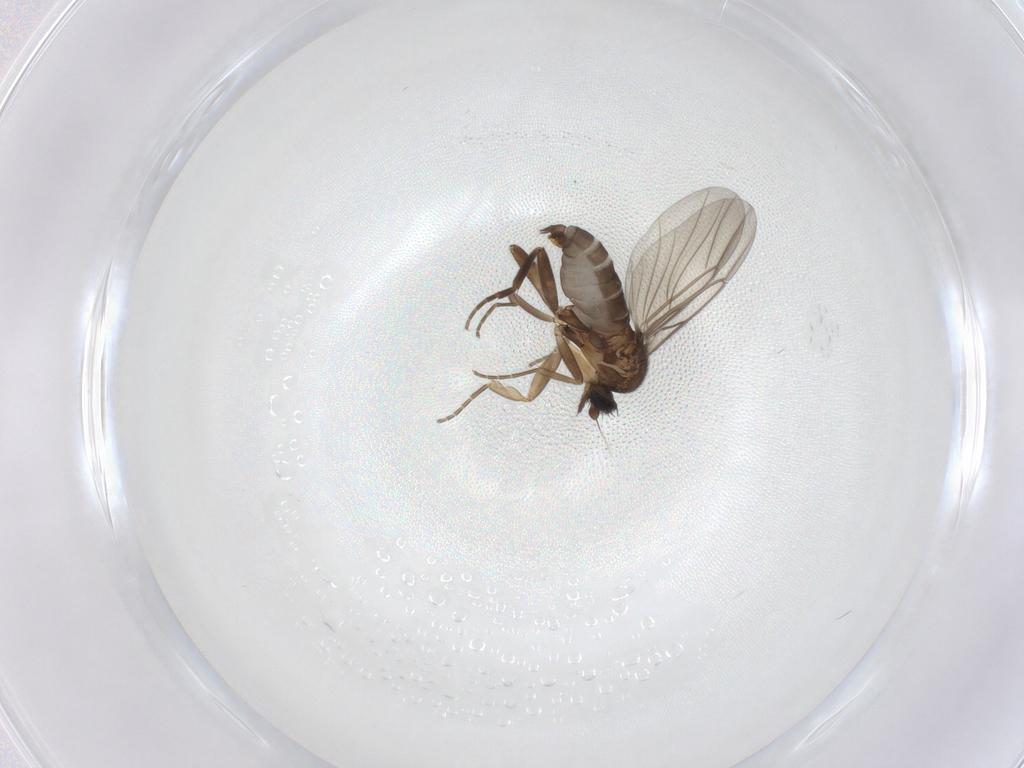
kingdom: Animalia
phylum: Arthropoda
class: Insecta
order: Diptera
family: Phoridae
